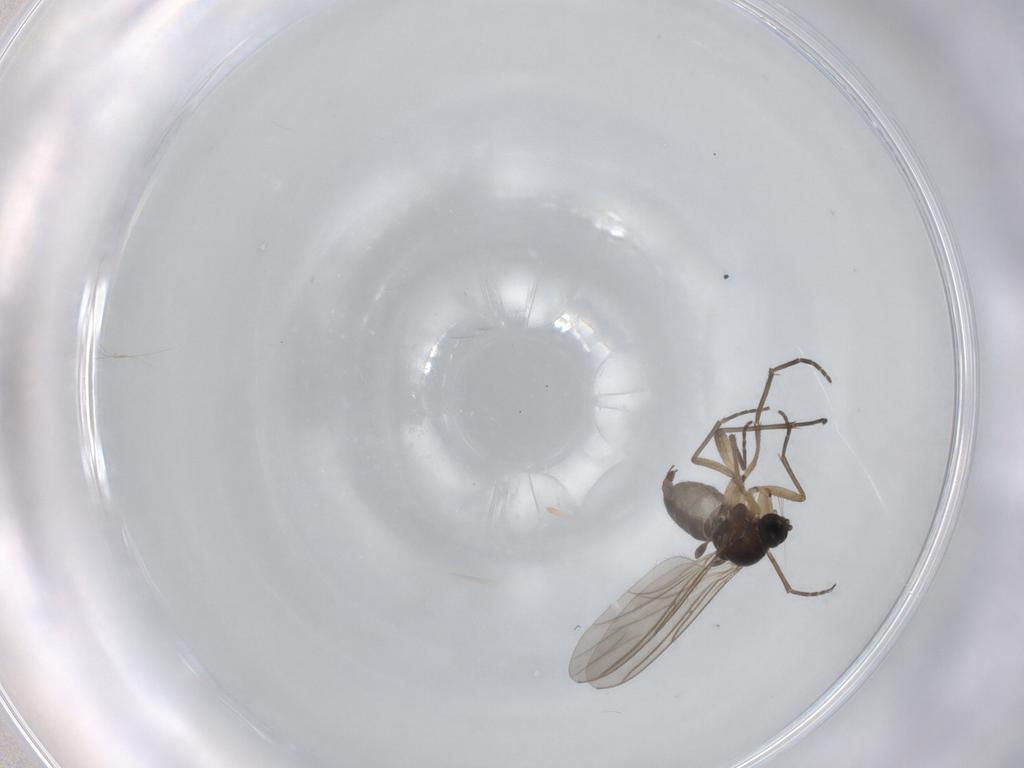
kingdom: Animalia
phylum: Arthropoda
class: Insecta
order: Diptera
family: Sciaridae
